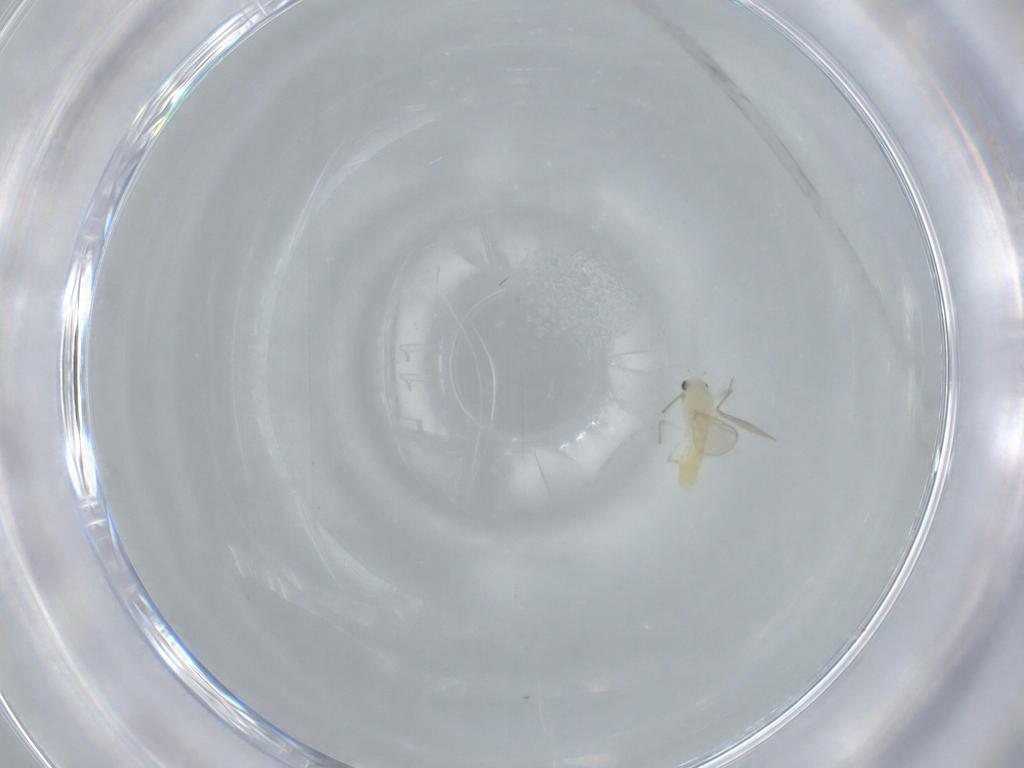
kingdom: Animalia
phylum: Arthropoda
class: Insecta
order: Diptera
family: Chironomidae
